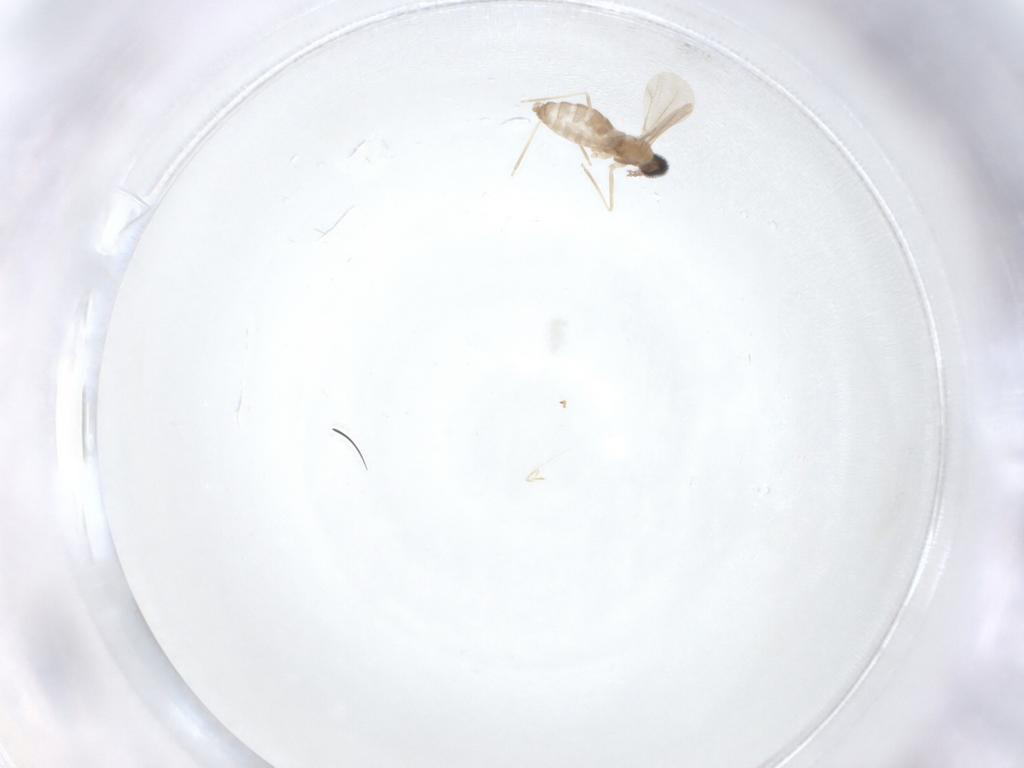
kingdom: Animalia
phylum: Arthropoda
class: Insecta
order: Diptera
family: Cecidomyiidae
